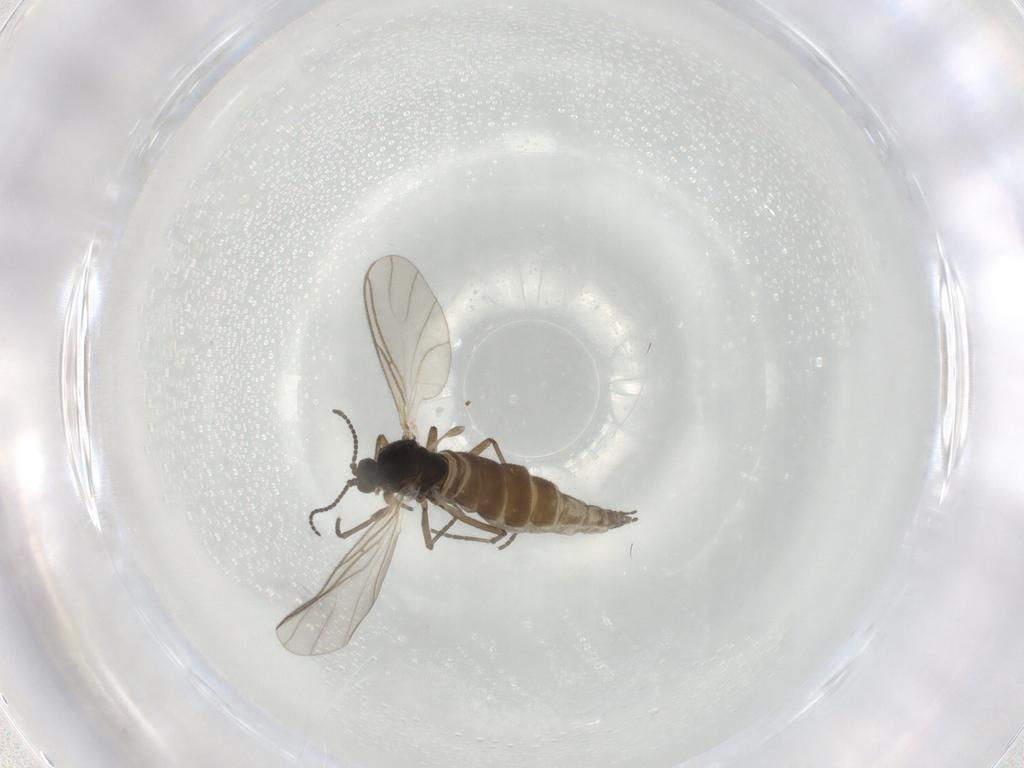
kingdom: Animalia
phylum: Arthropoda
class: Insecta
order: Diptera
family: Sciaridae
